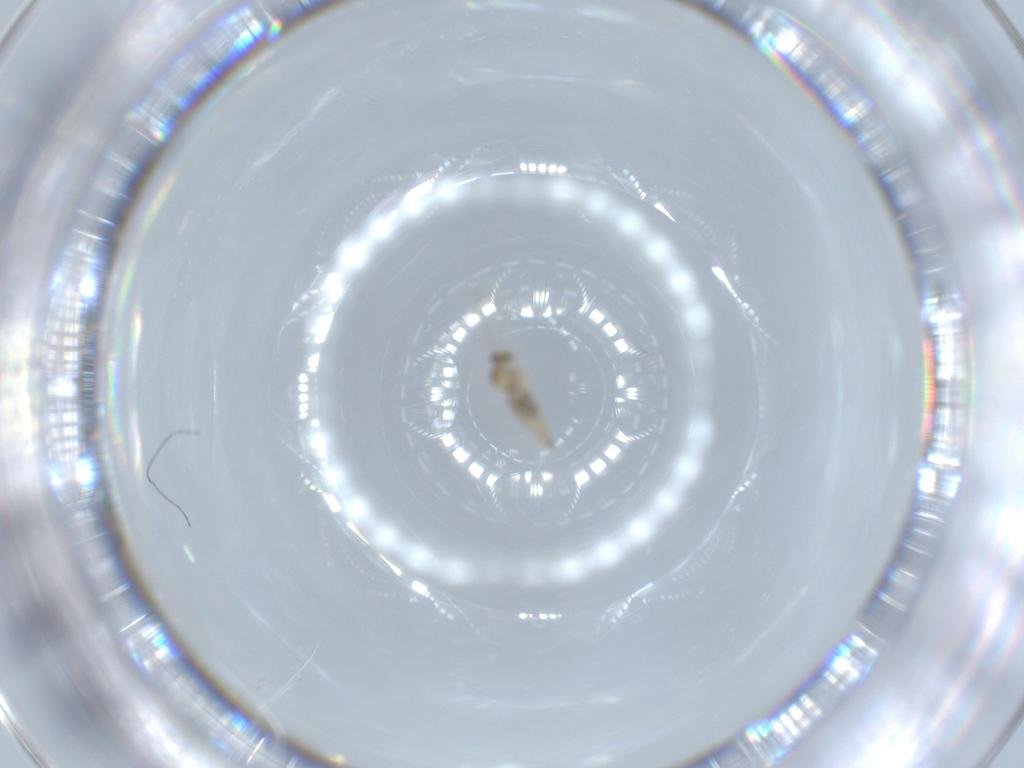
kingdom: Animalia
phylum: Arthropoda
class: Insecta
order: Diptera
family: Cecidomyiidae
